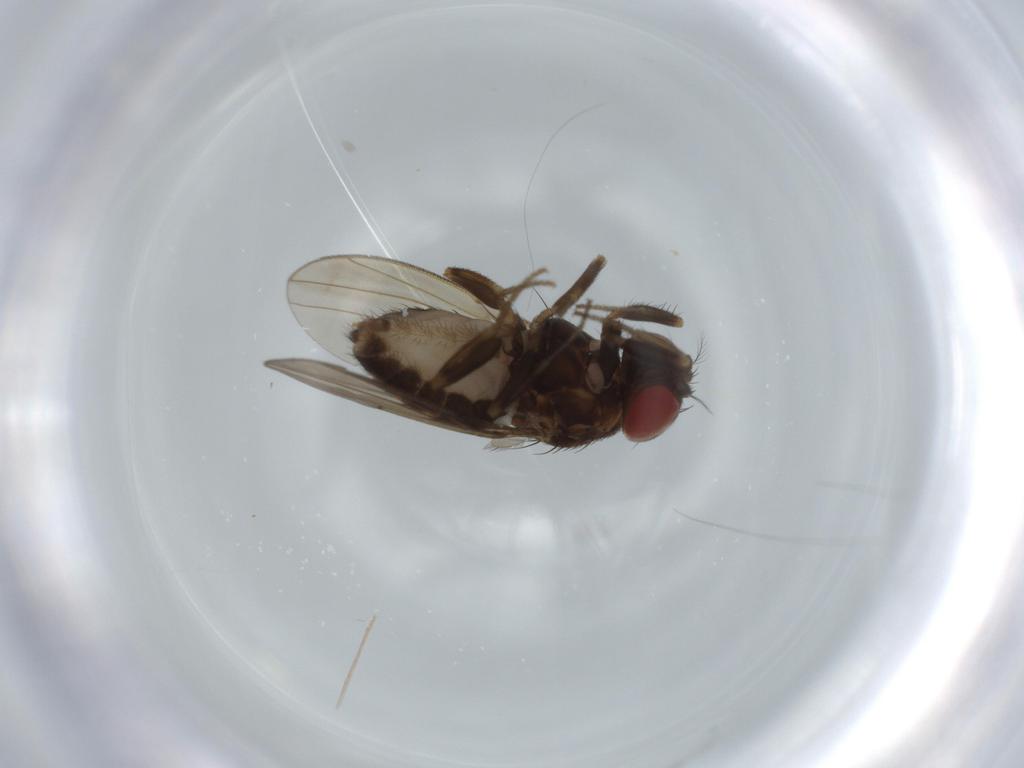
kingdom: Animalia
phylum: Arthropoda
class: Insecta
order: Diptera
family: Drosophilidae
